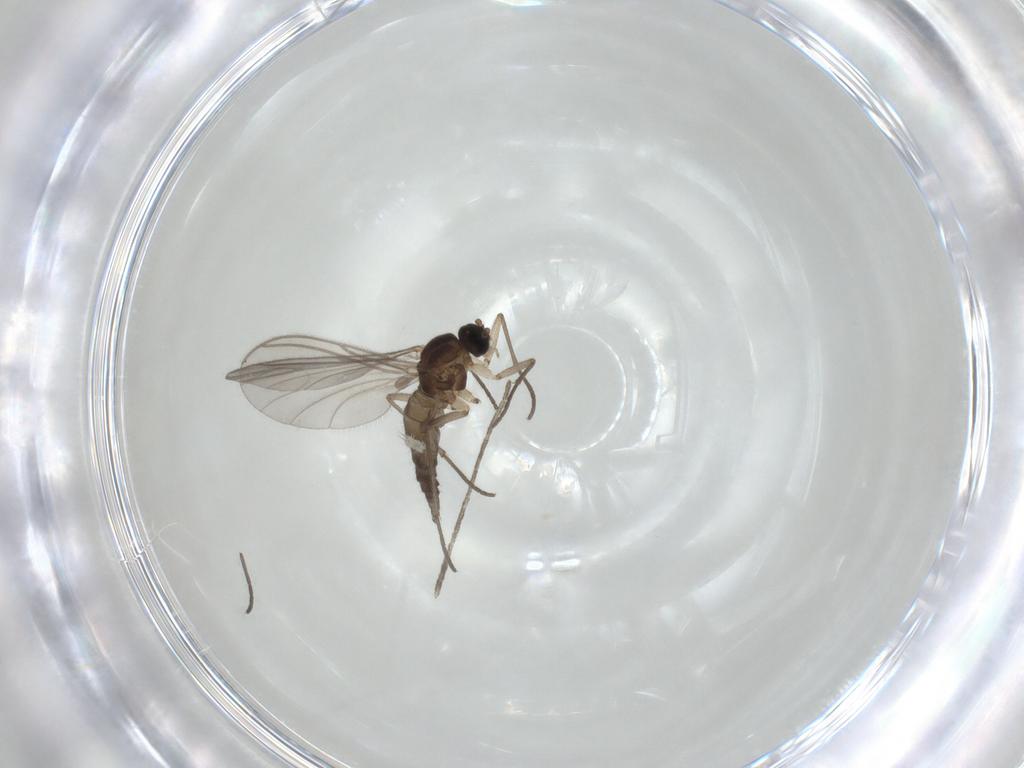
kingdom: Animalia
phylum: Arthropoda
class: Insecta
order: Diptera
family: Sciaridae
